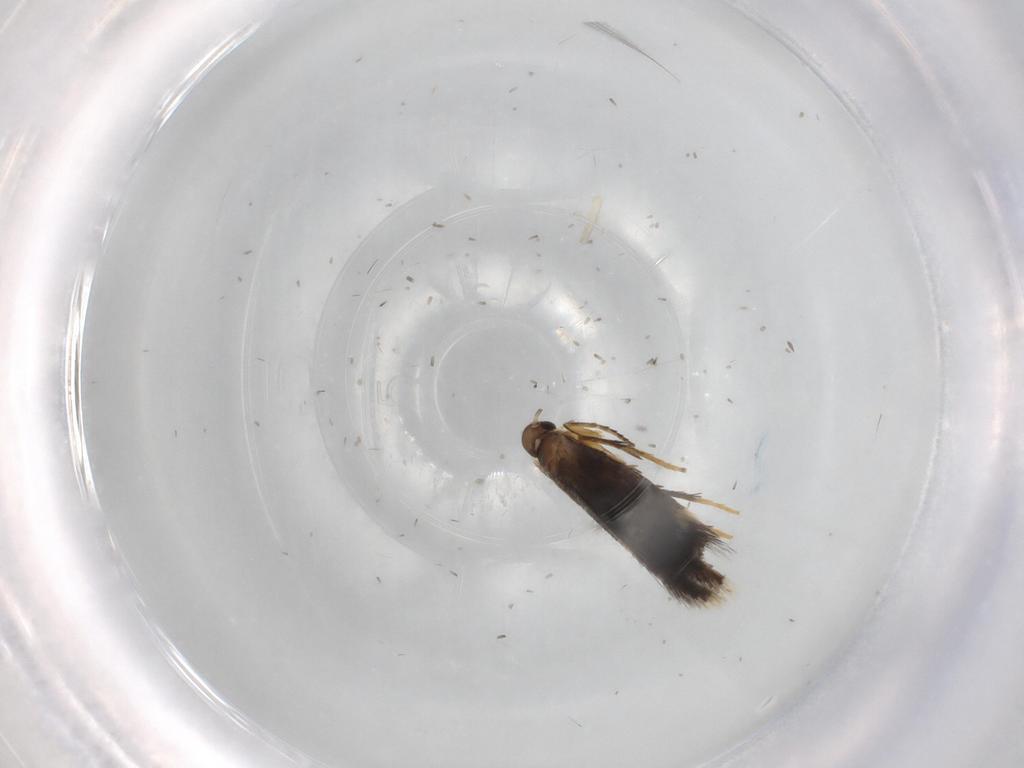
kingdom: Animalia
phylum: Arthropoda
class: Insecta
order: Lepidoptera
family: Heliozelidae
